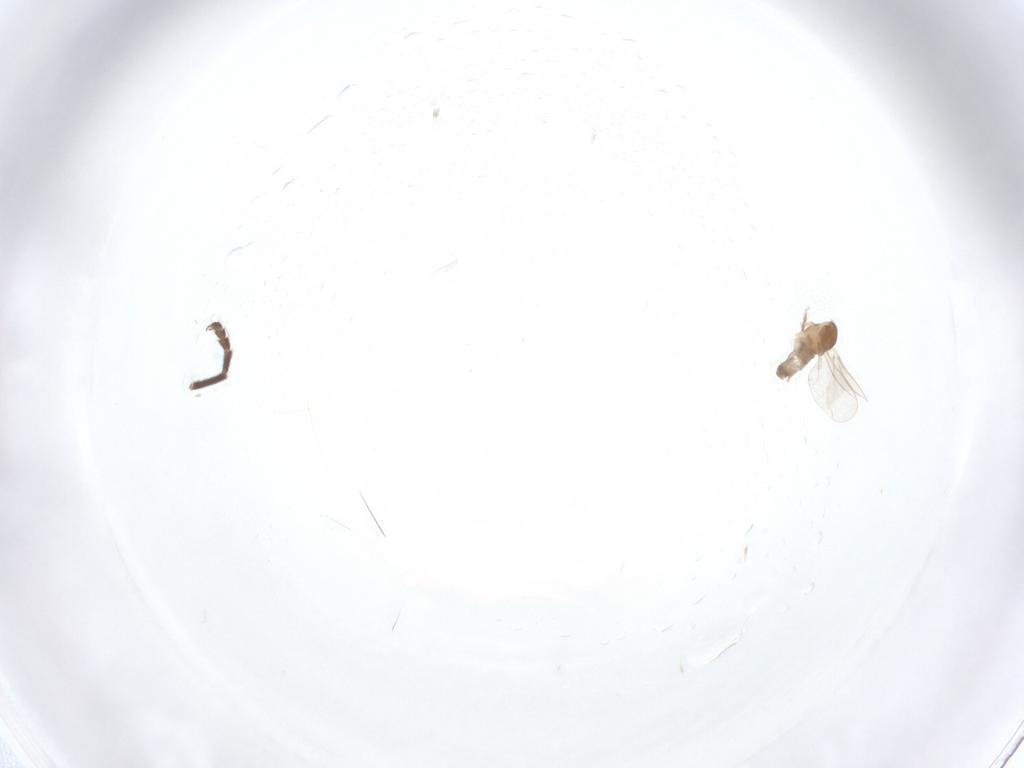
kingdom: Animalia
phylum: Arthropoda
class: Insecta
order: Diptera
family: Micropezidae
